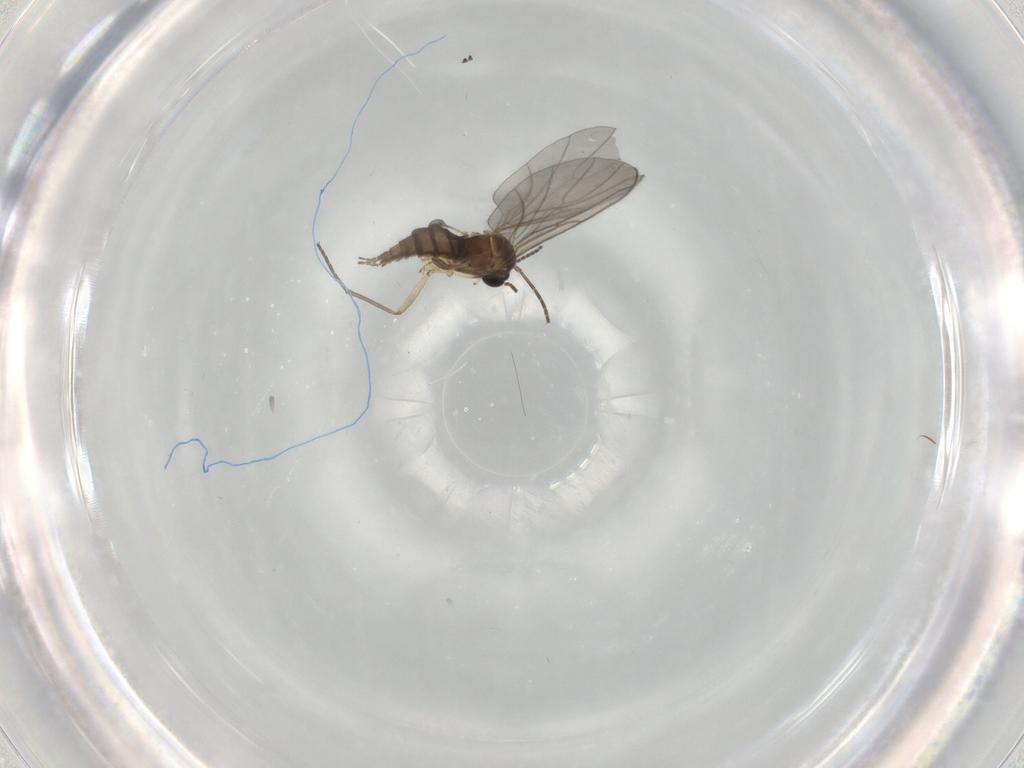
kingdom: Animalia
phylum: Arthropoda
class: Insecta
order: Diptera
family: Sciaridae
